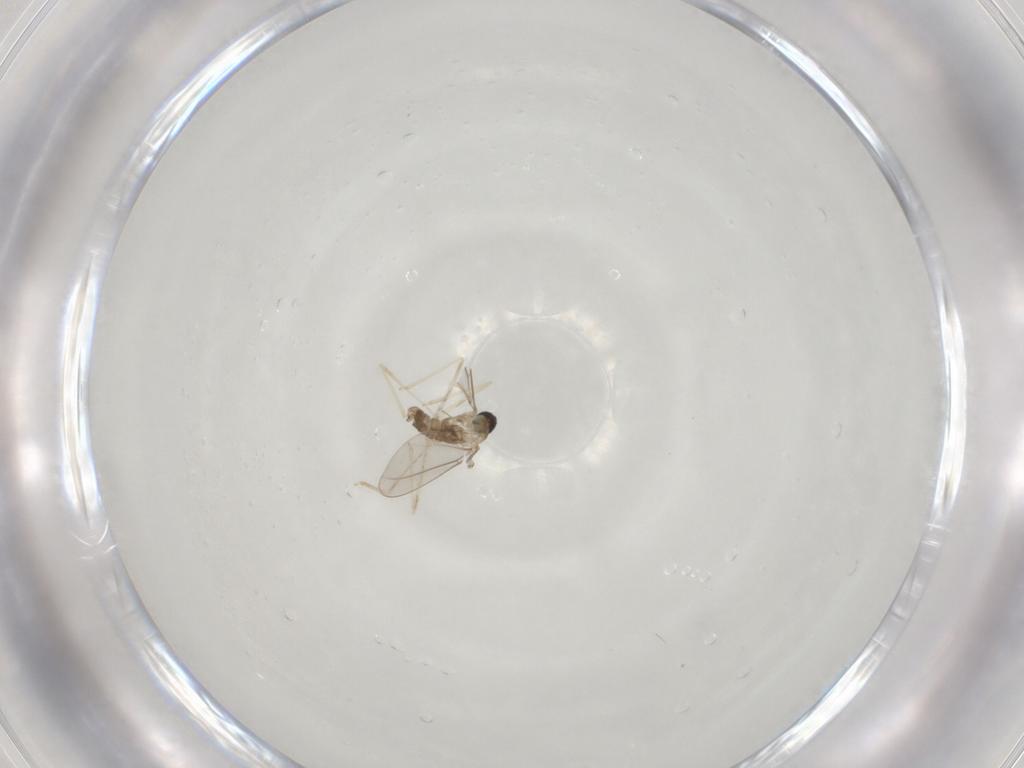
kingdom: Animalia
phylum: Arthropoda
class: Insecta
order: Diptera
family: Cecidomyiidae
